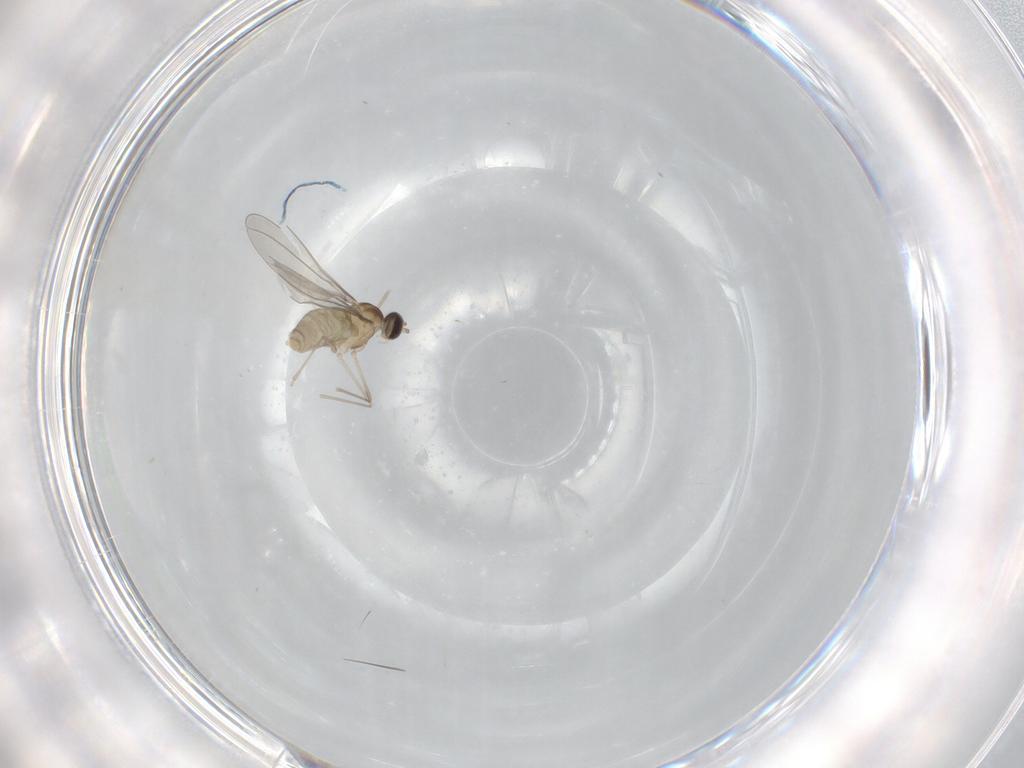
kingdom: Animalia
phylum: Arthropoda
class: Insecta
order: Diptera
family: Cecidomyiidae
